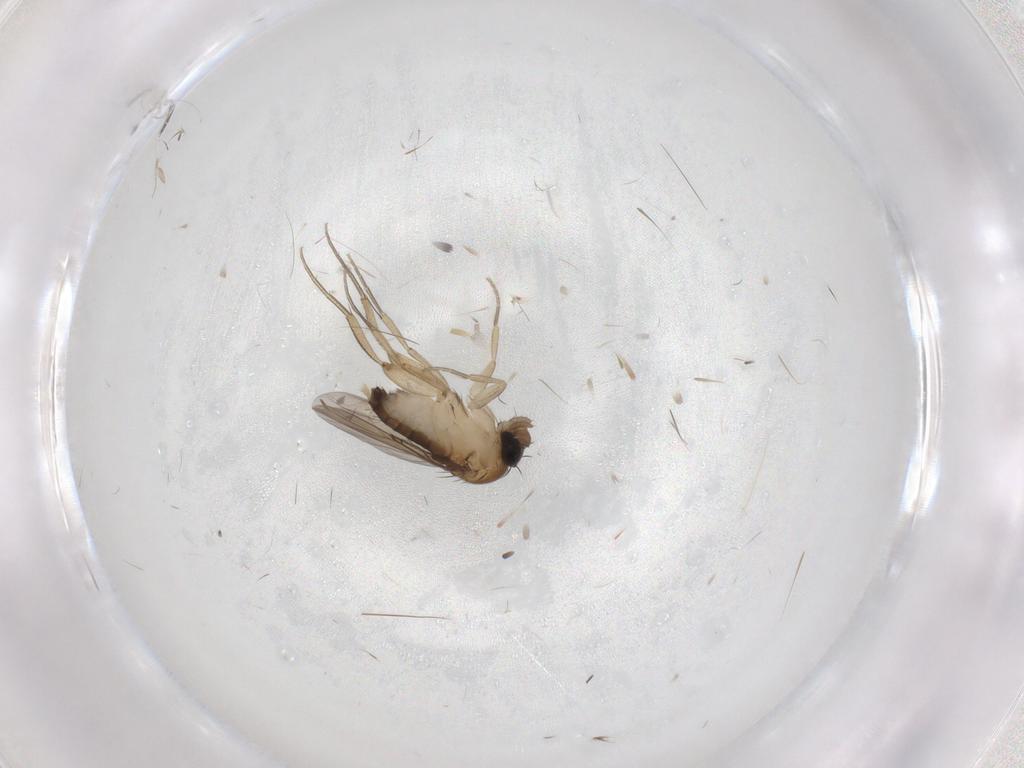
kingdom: Animalia
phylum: Arthropoda
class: Insecta
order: Diptera
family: Phoridae
